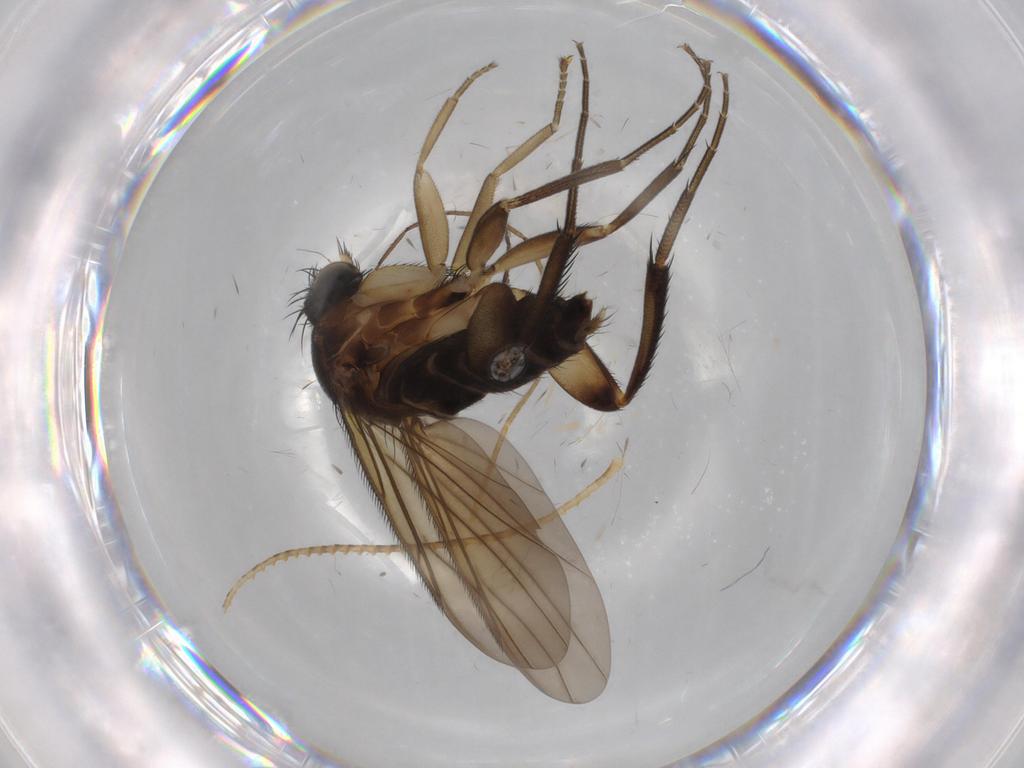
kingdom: Animalia
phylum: Arthropoda
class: Insecta
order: Diptera
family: Phoridae
